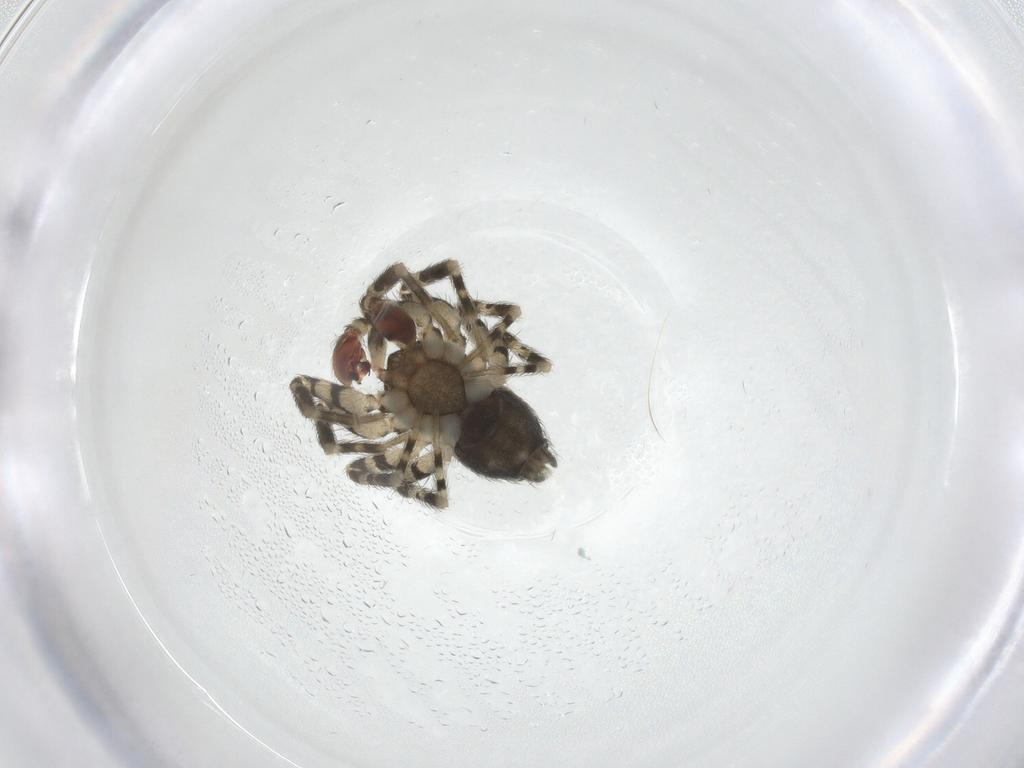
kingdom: Animalia
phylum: Arthropoda
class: Arachnida
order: Araneae
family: Oecobiidae
